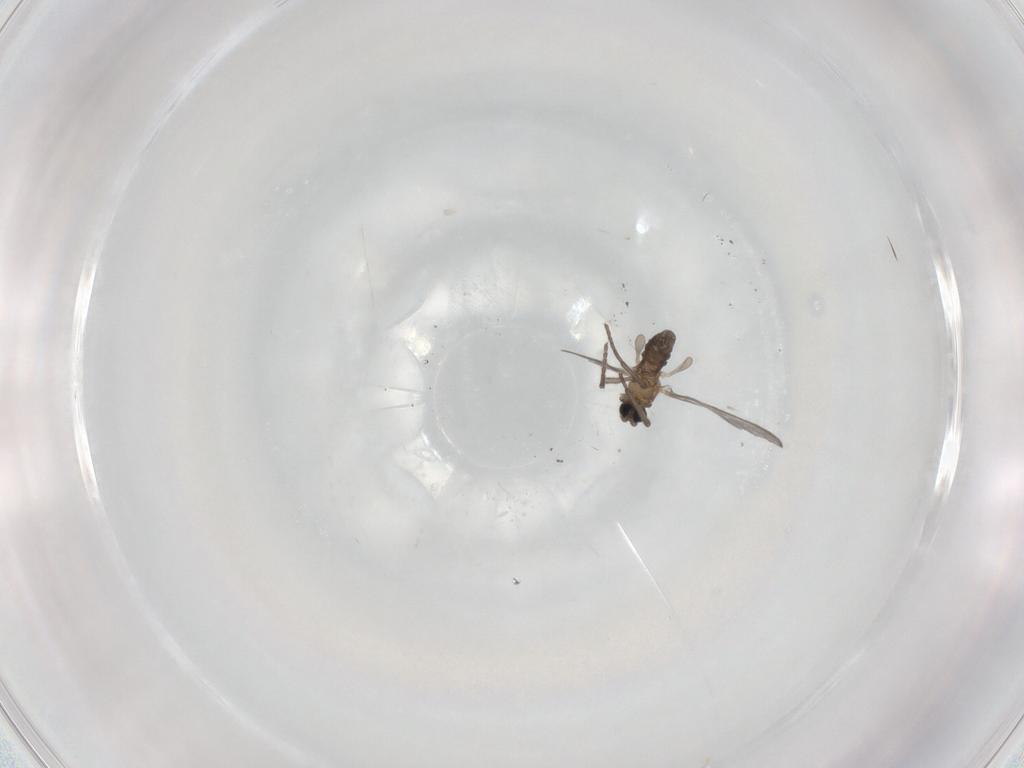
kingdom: Animalia
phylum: Arthropoda
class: Insecta
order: Diptera
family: Sciaridae
